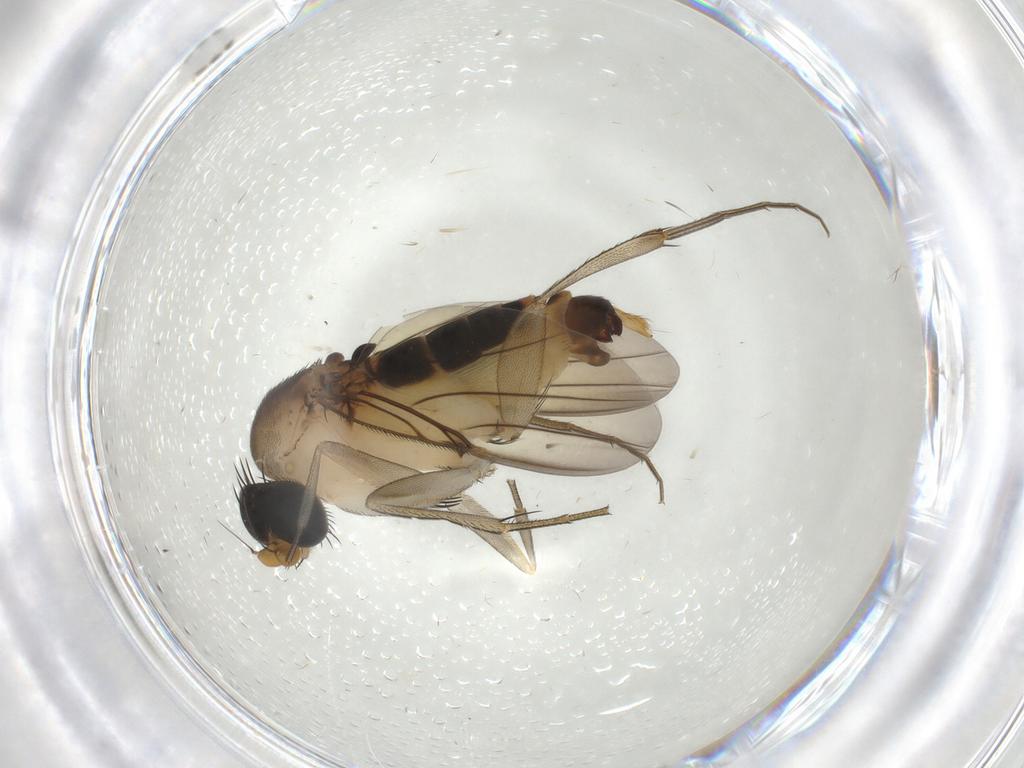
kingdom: Animalia
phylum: Arthropoda
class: Insecta
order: Diptera
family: Phoridae
